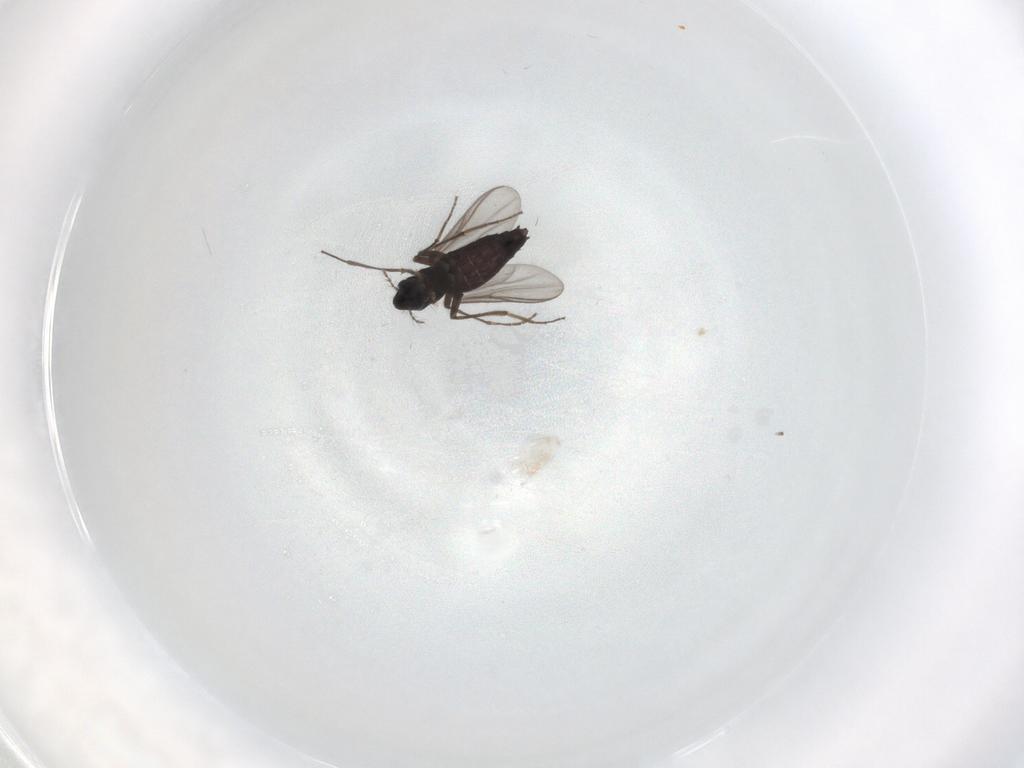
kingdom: Animalia
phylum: Arthropoda
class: Insecta
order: Diptera
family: Chironomidae
